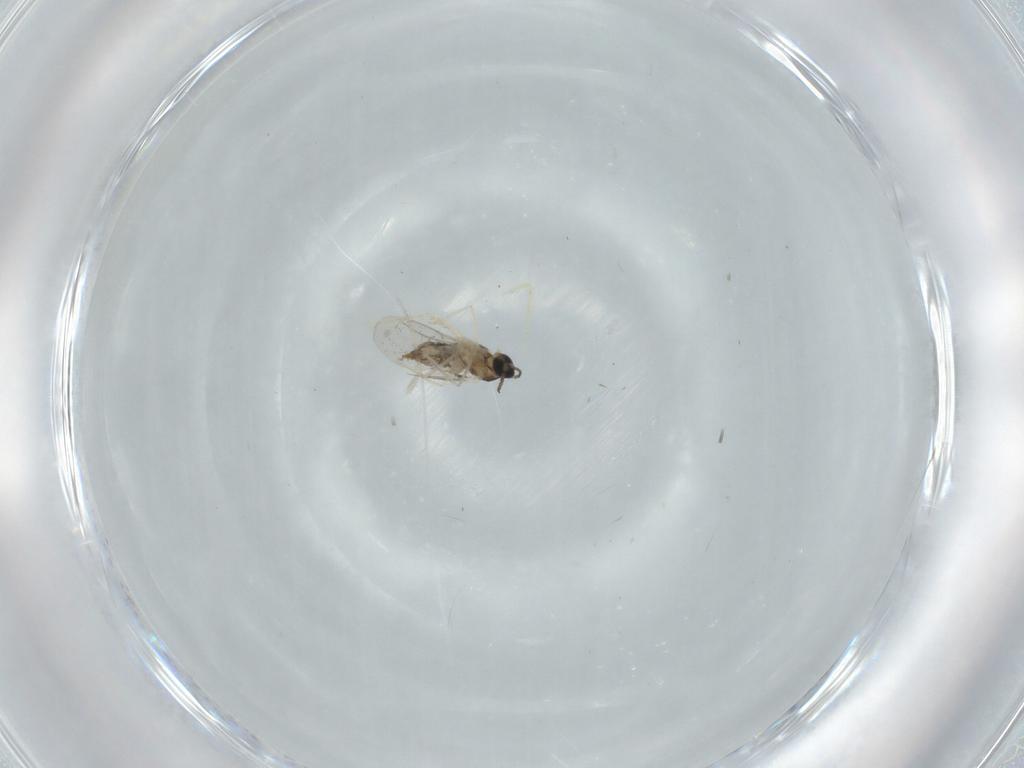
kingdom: Animalia
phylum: Arthropoda
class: Insecta
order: Diptera
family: Cecidomyiidae
